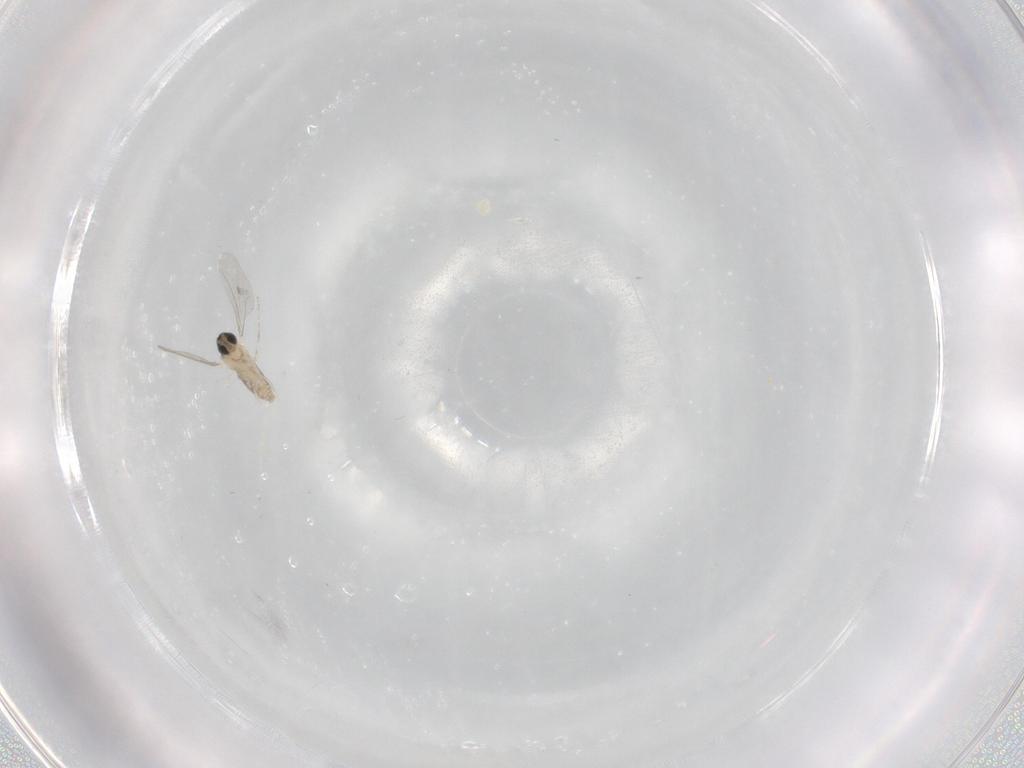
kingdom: Animalia
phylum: Arthropoda
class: Insecta
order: Diptera
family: Cecidomyiidae
